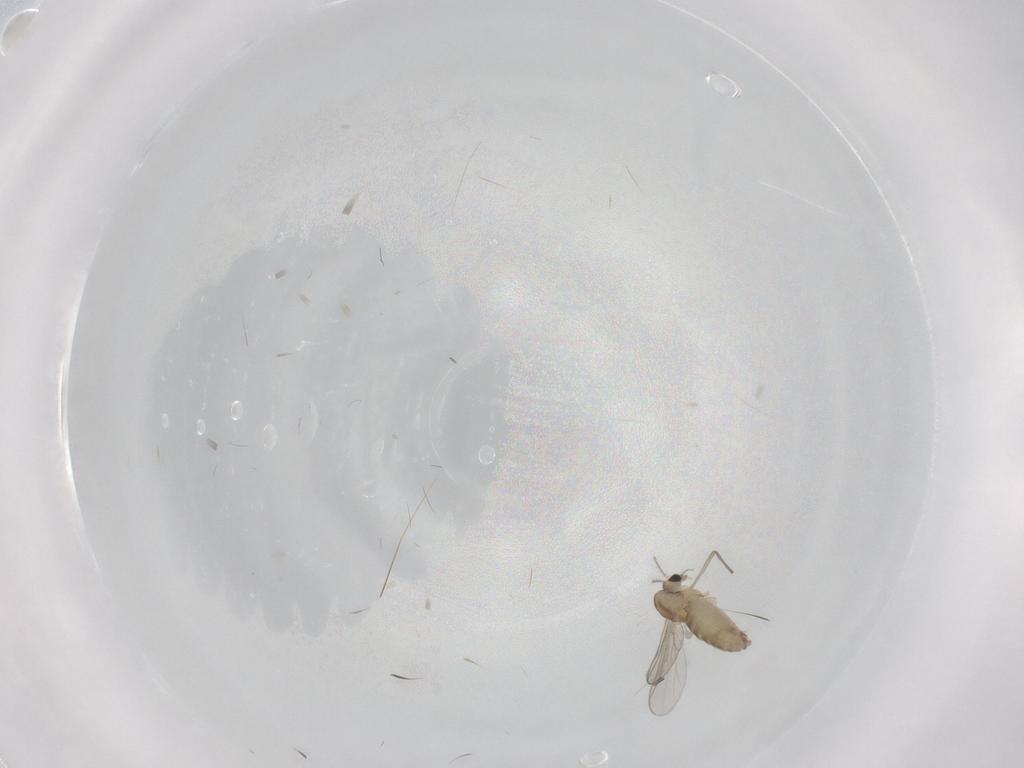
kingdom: Animalia
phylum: Arthropoda
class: Insecta
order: Diptera
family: Chironomidae
